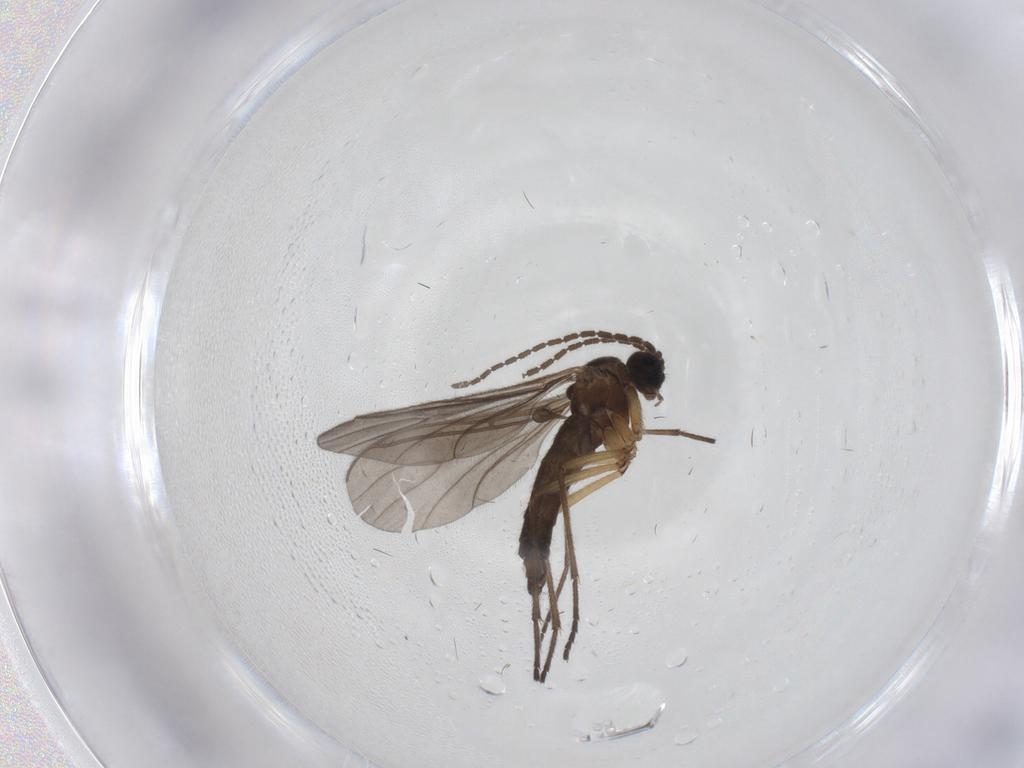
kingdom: Animalia
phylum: Arthropoda
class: Insecta
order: Diptera
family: Sciaridae
